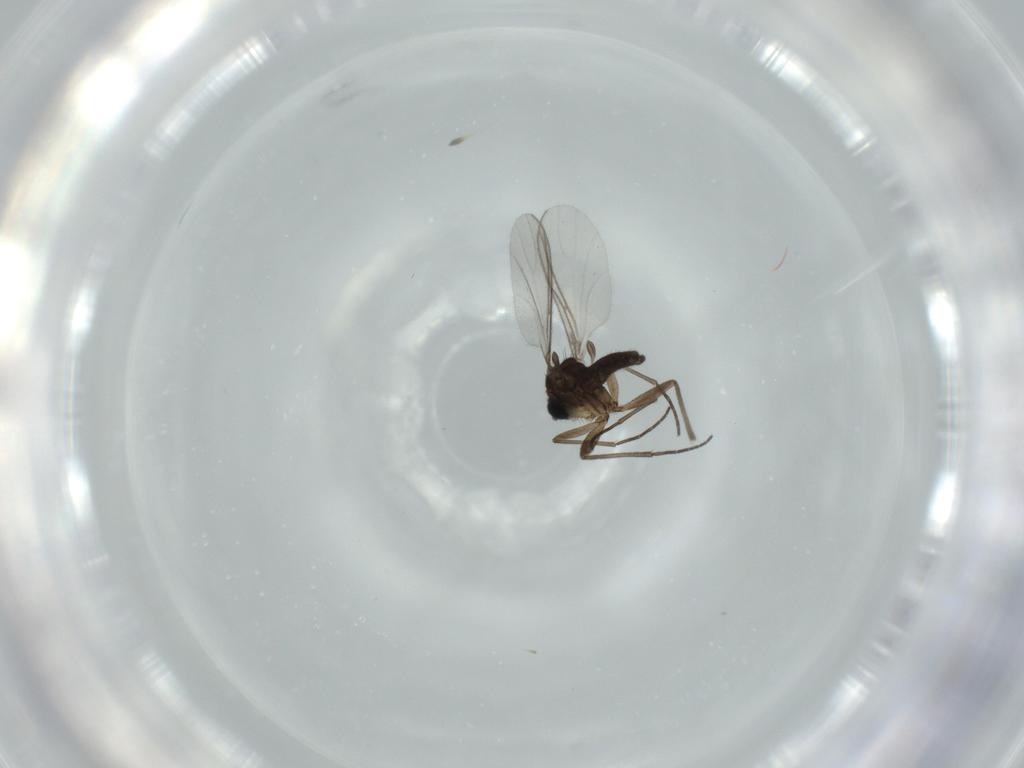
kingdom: Animalia
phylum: Arthropoda
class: Insecta
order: Diptera
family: Sciaridae
